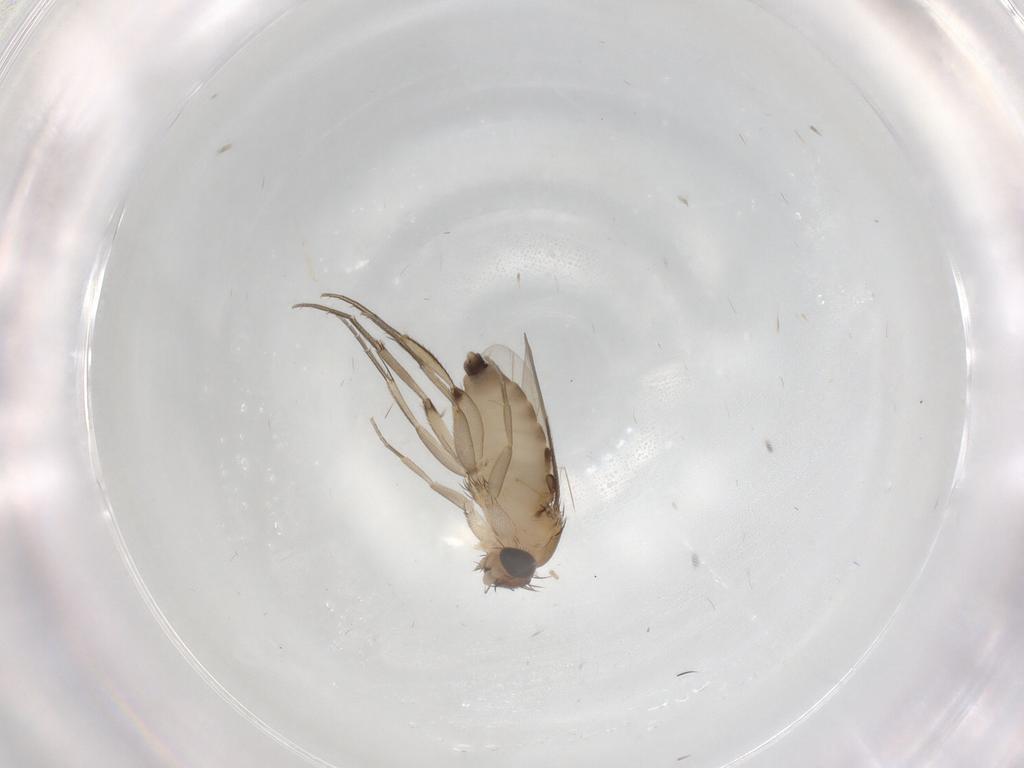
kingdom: Animalia
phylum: Arthropoda
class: Insecta
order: Diptera
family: Phoridae
